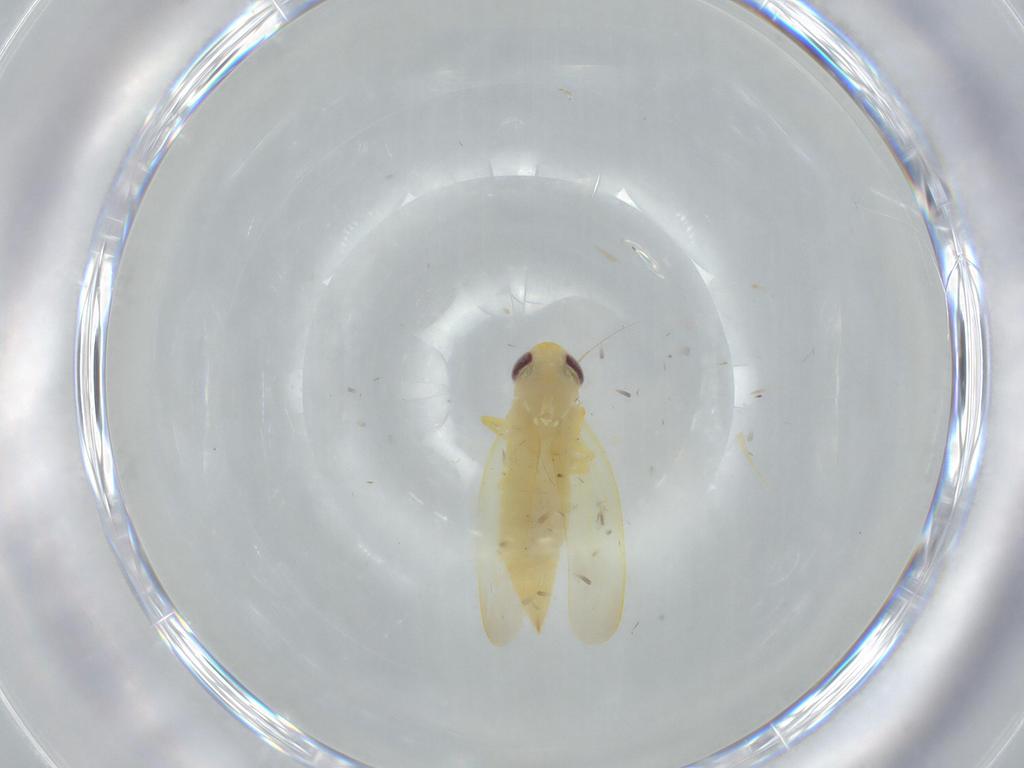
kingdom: Animalia
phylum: Arthropoda
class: Insecta
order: Hemiptera
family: Cicadellidae
